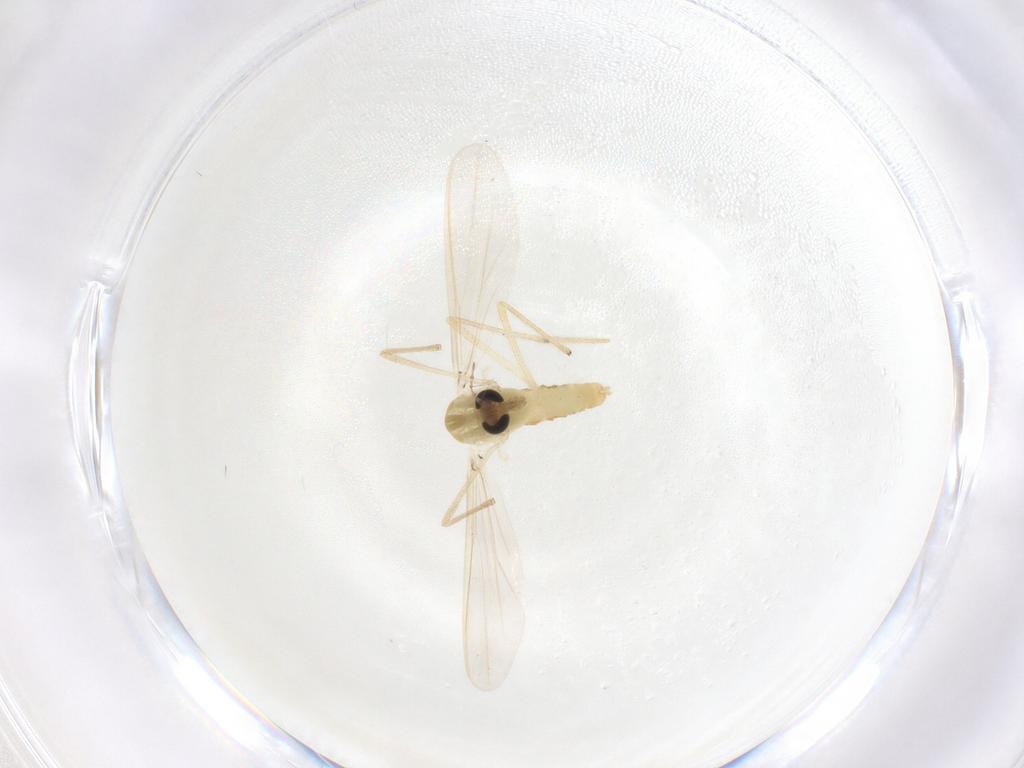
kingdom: Animalia
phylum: Arthropoda
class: Insecta
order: Diptera
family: Chironomidae
